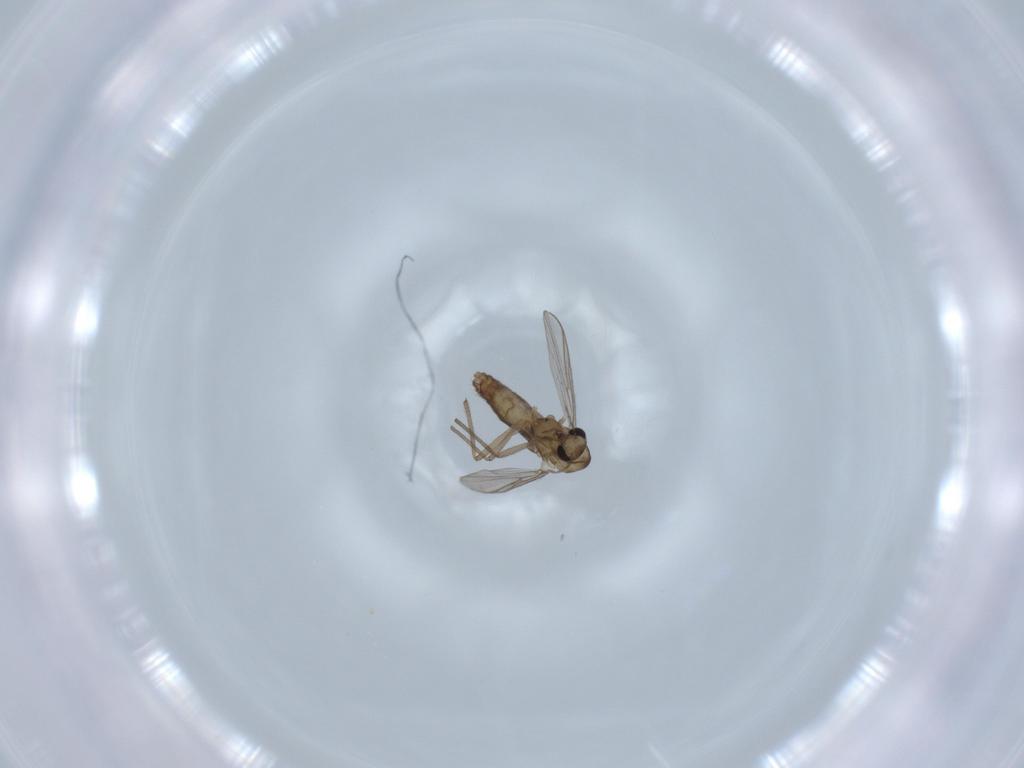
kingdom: Animalia
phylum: Arthropoda
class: Insecta
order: Diptera
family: Chironomidae
